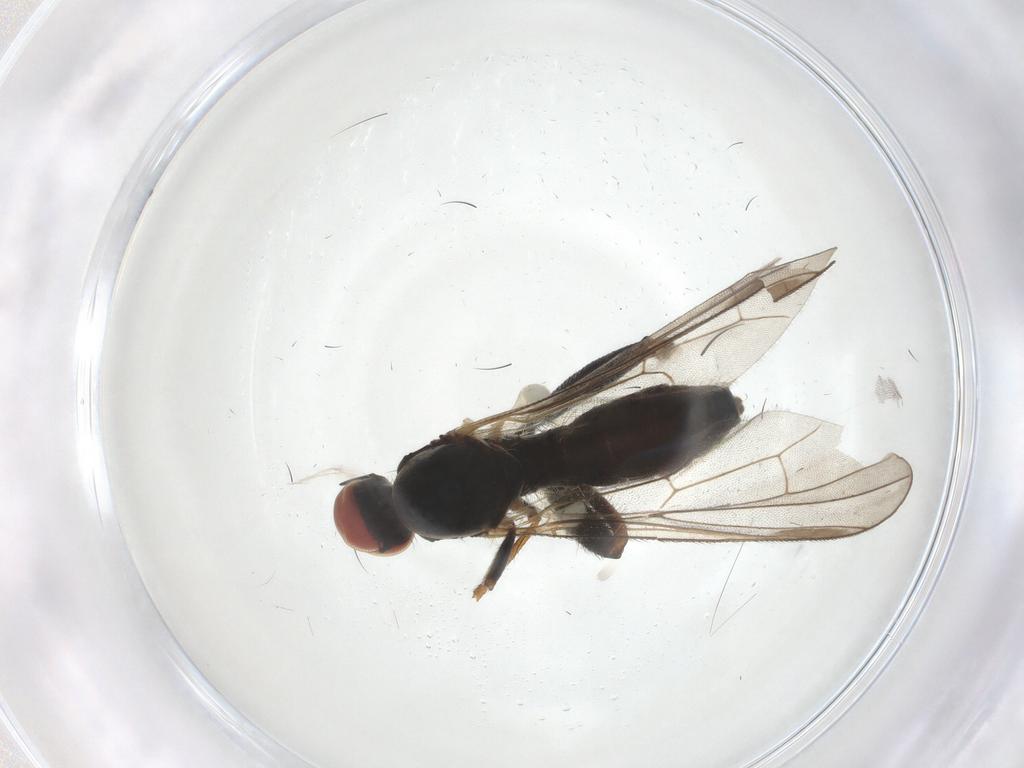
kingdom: Animalia
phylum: Arthropoda
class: Insecta
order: Diptera
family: Hybotidae
